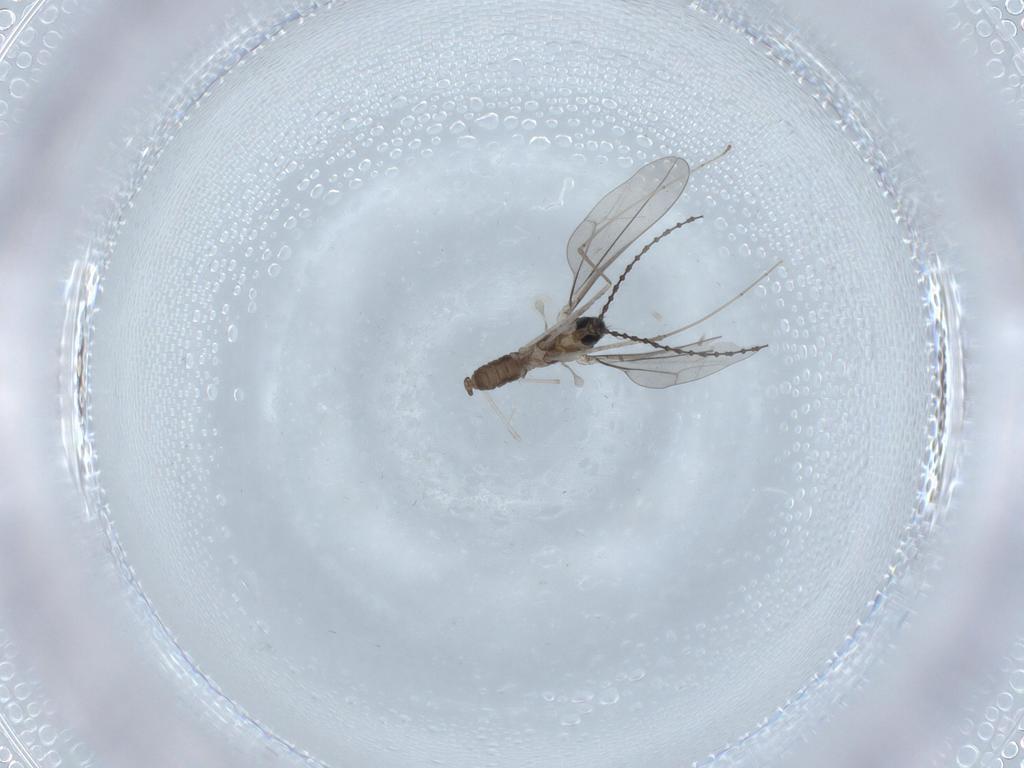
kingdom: Animalia
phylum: Arthropoda
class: Insecta
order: Diptera
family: Cecidomyiidae
